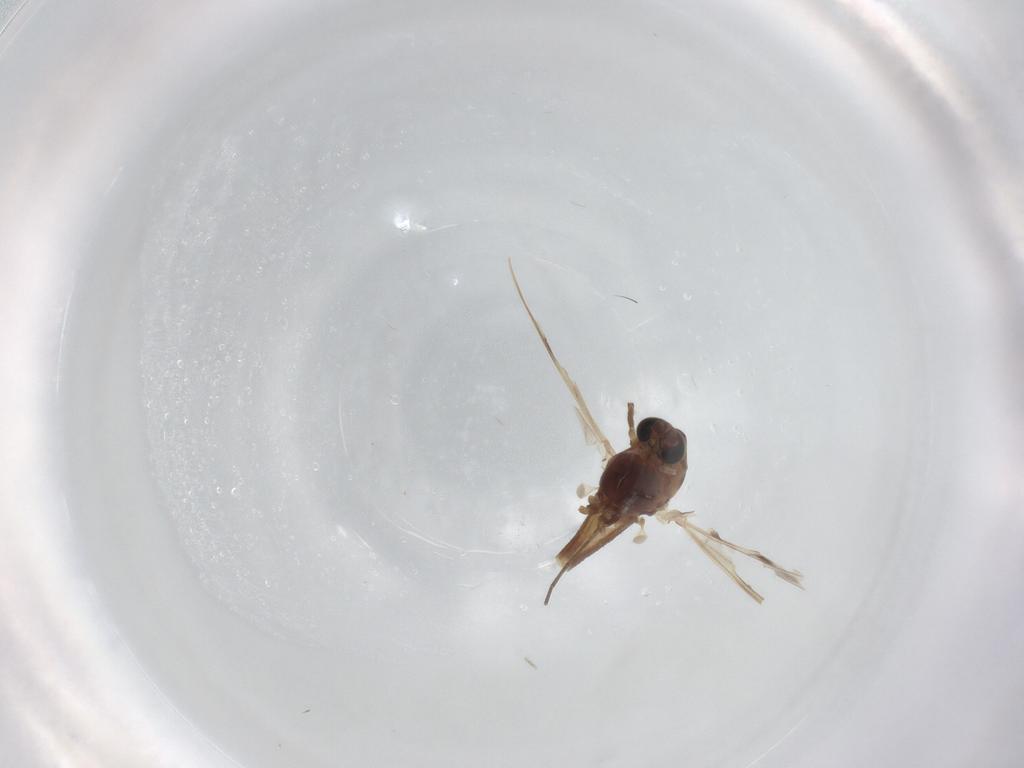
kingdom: Animalia
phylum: Arthropoda
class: Insecta
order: Diptera
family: Chironomidae
